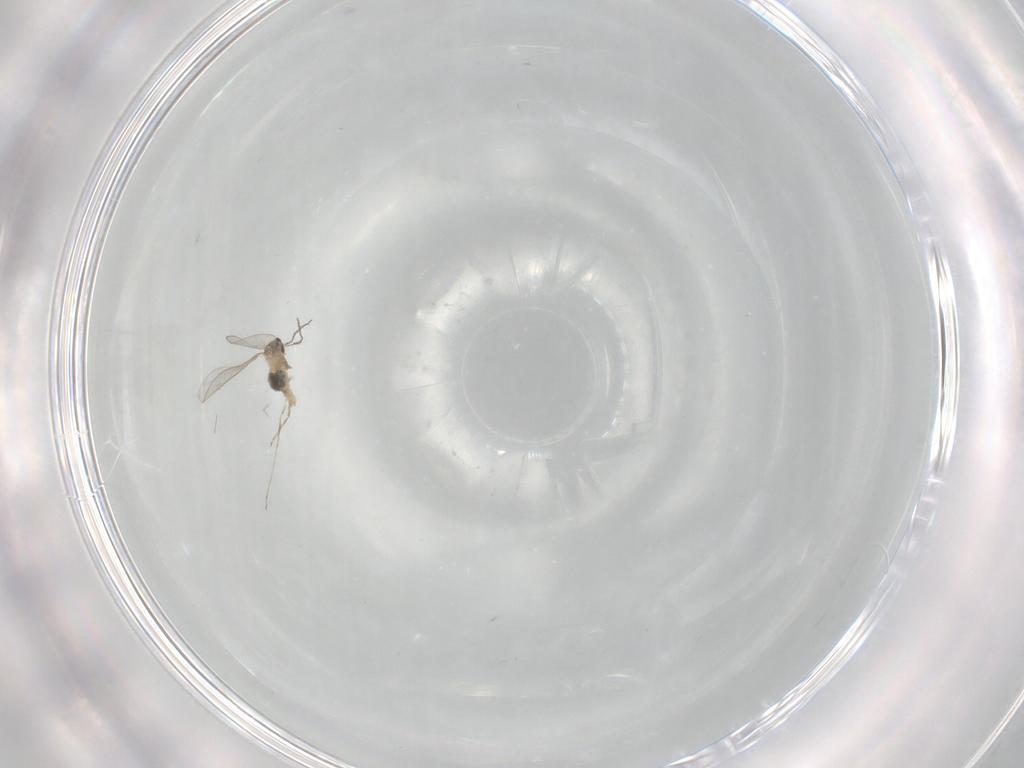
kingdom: Animalia
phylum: Arthropoda
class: Insecta
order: Diptera
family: Cecidomyiidae
